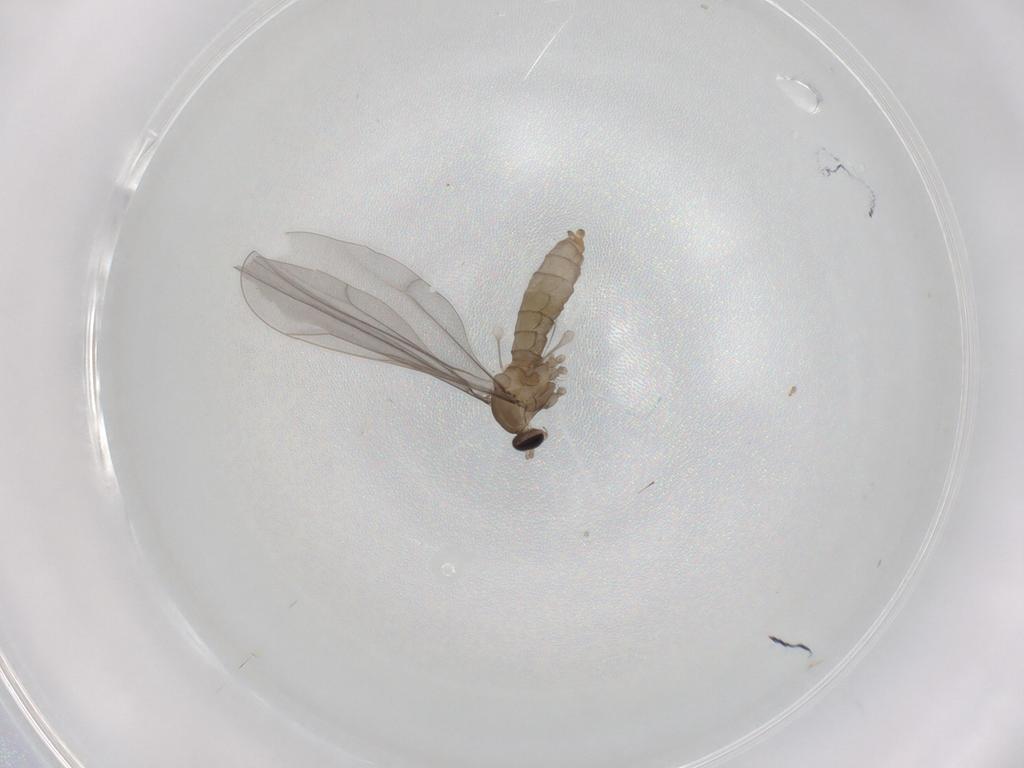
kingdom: Animalia
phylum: Arthropoda
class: Insecta
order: Diptera
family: Cecidomyiidae
